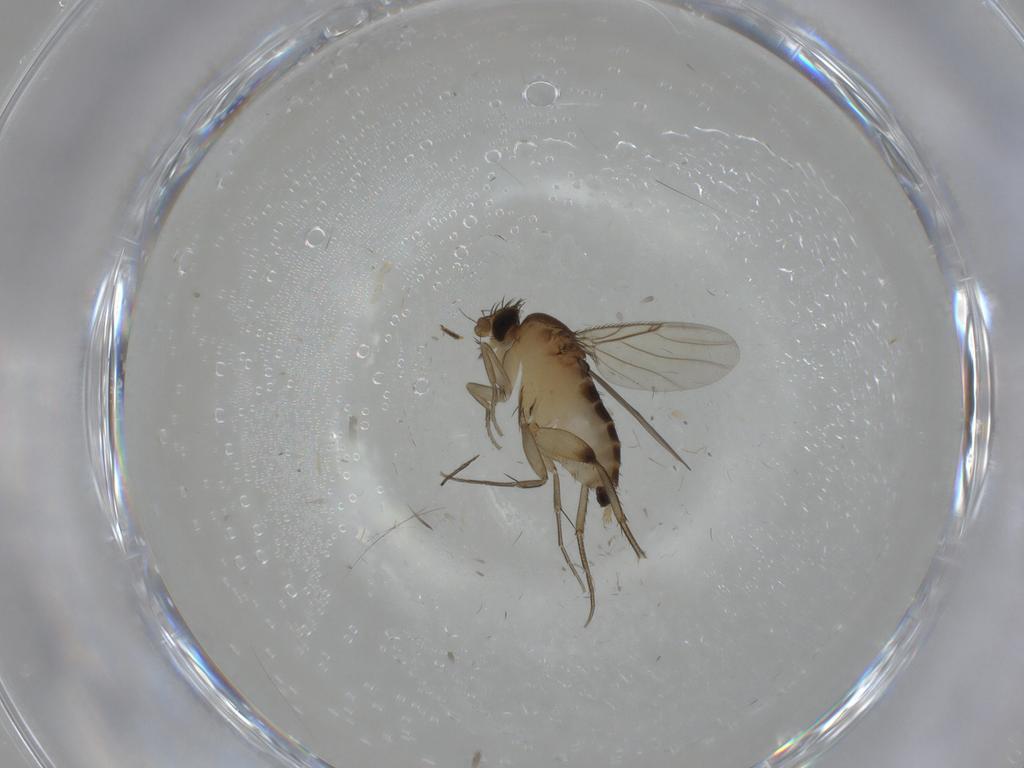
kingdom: Animalia
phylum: Arthropoda
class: Insecta
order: Diptera
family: Cecidomyiidae
